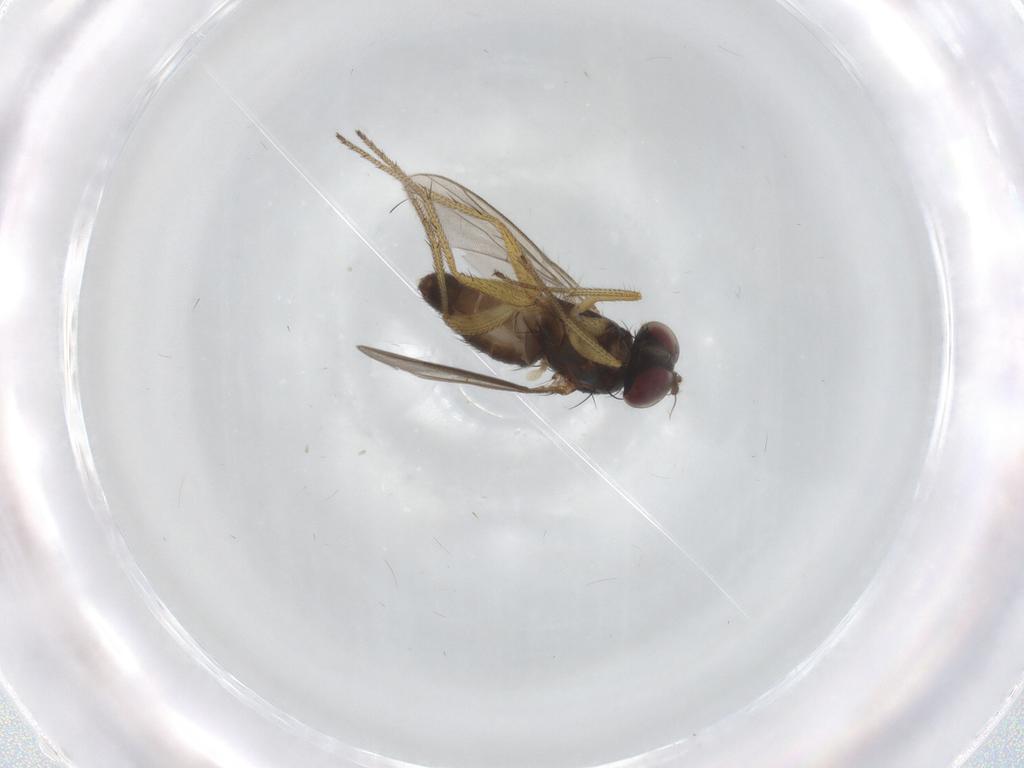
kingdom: Animalia
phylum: Arthropoda
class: Insecta
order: Diptera
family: Dolichopodidae
